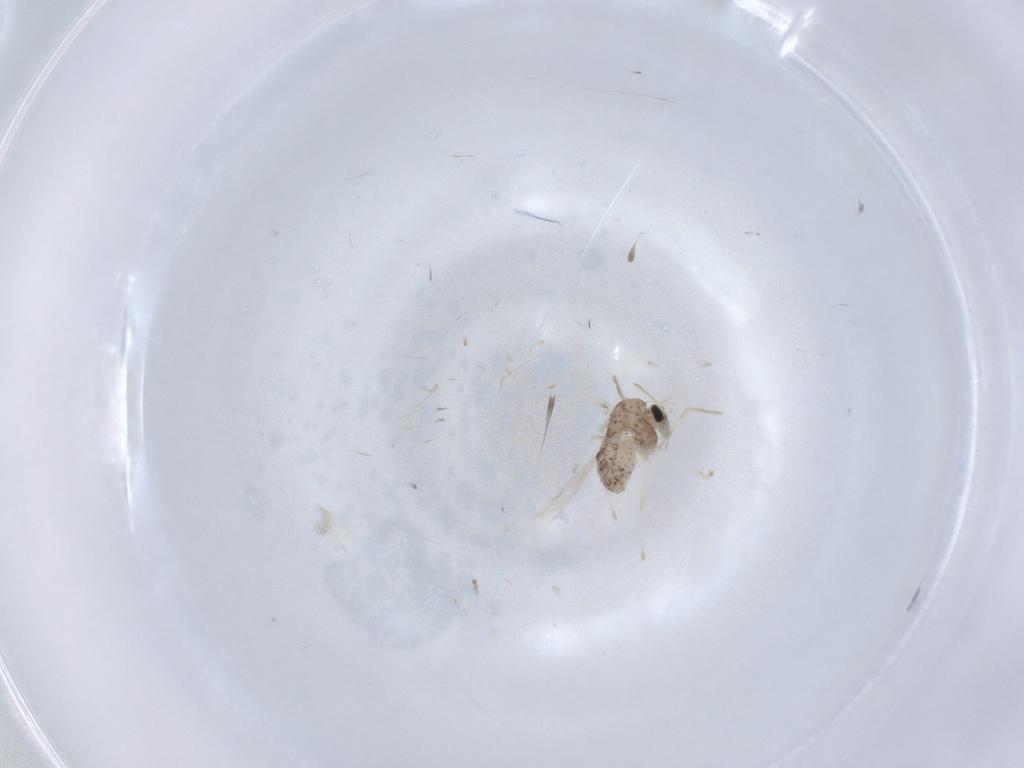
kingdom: Animalia
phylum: Arthropoda
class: Insecta
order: Diptera
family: Chironomidae
